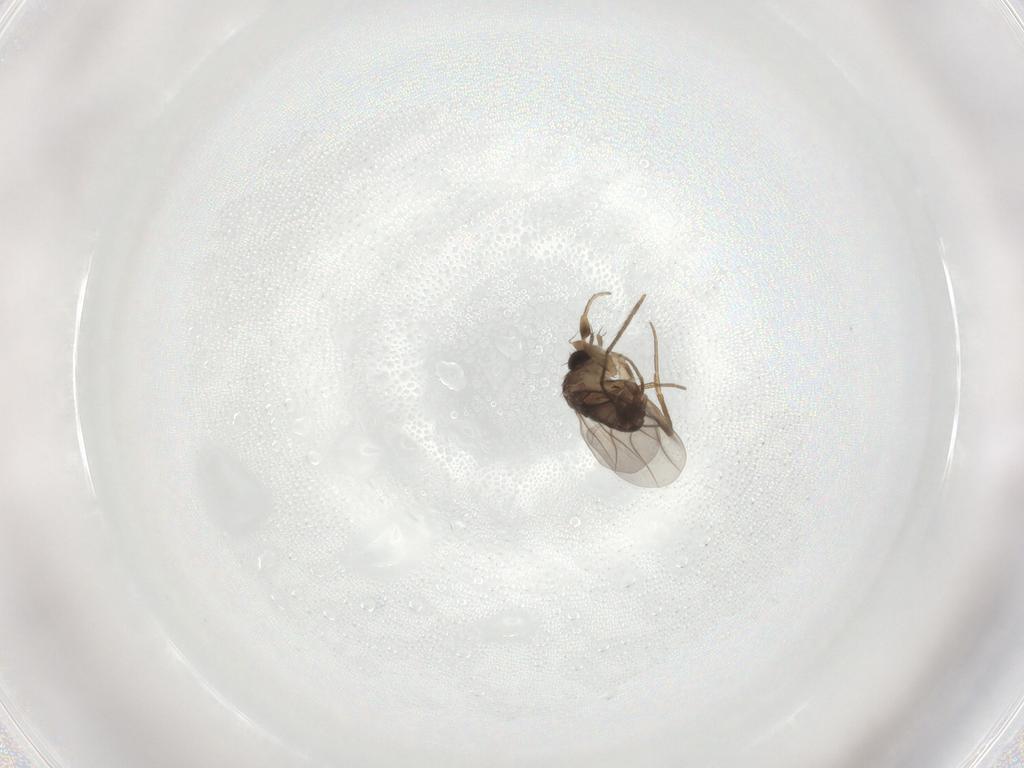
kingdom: Animalia
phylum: Arthropoda
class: Insecta
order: Diptera
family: Phoridae
